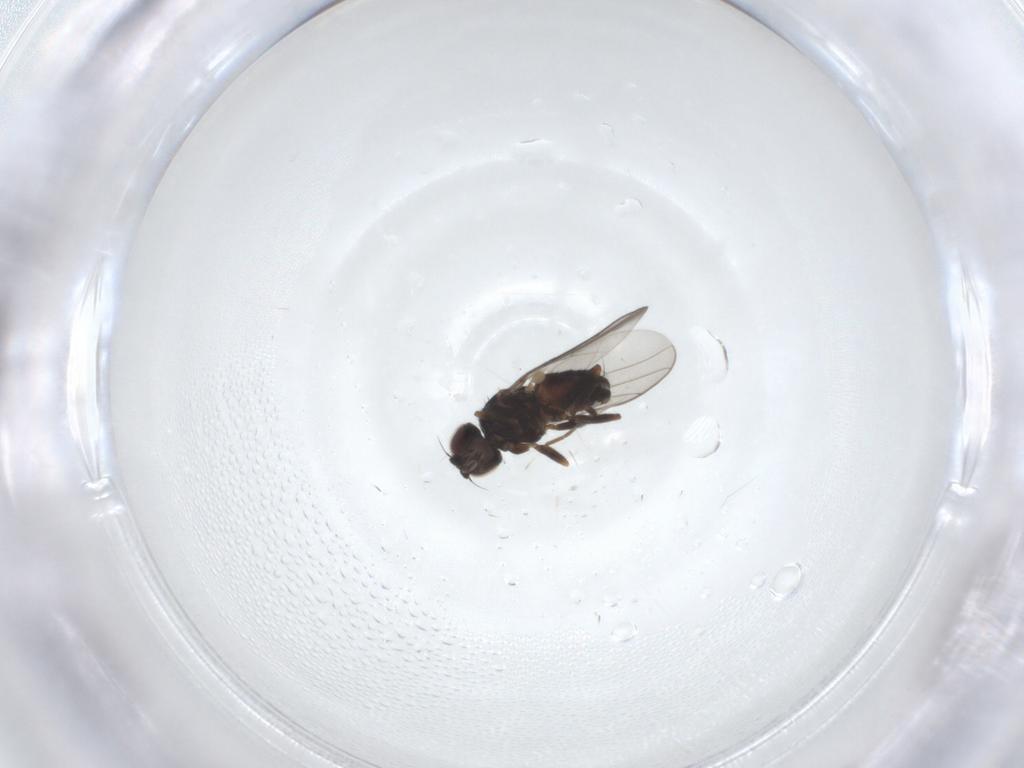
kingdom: Animalia
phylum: Arthropoda
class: Insecta
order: Diptera
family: Chloropidae
